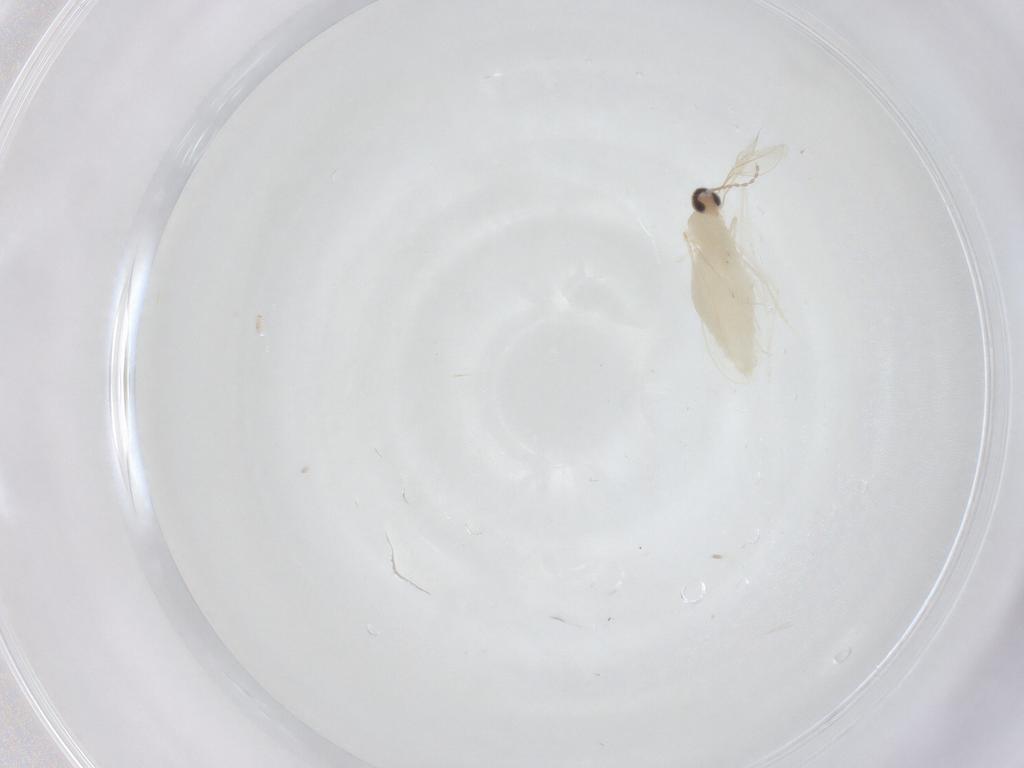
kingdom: Animalia
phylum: Arthropoda
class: Insecta
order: Diptera
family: Cecidomyiidae
